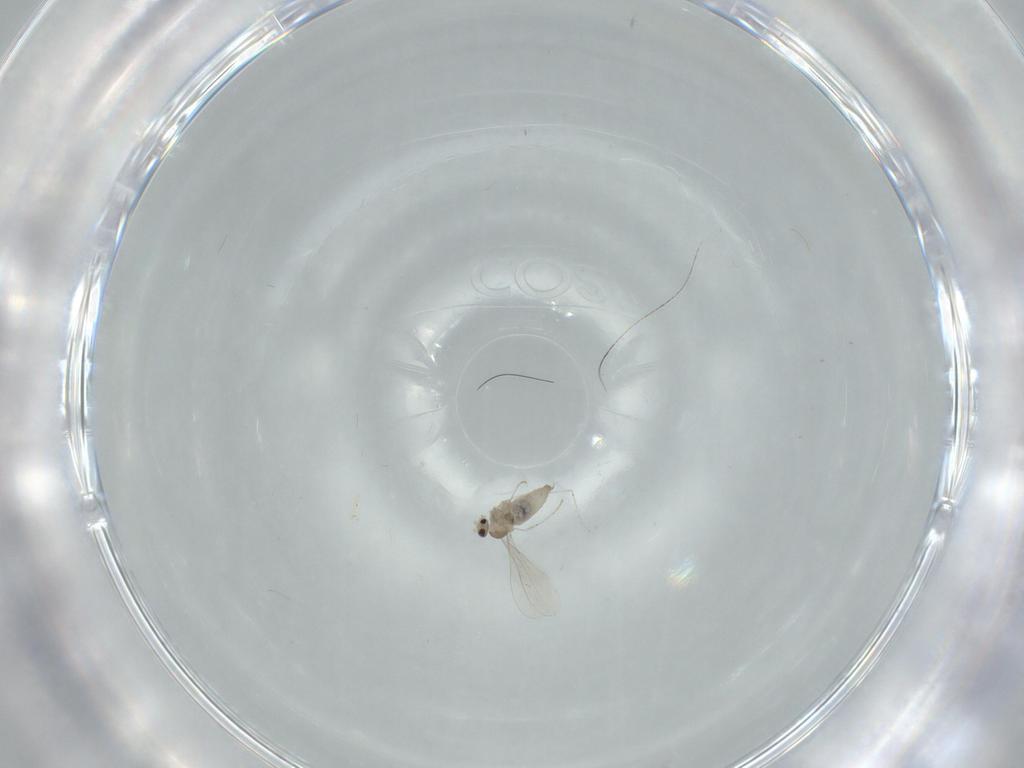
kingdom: Animalia
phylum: Arthropoda
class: Insecta
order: Diptera
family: Cecidomyiidae
